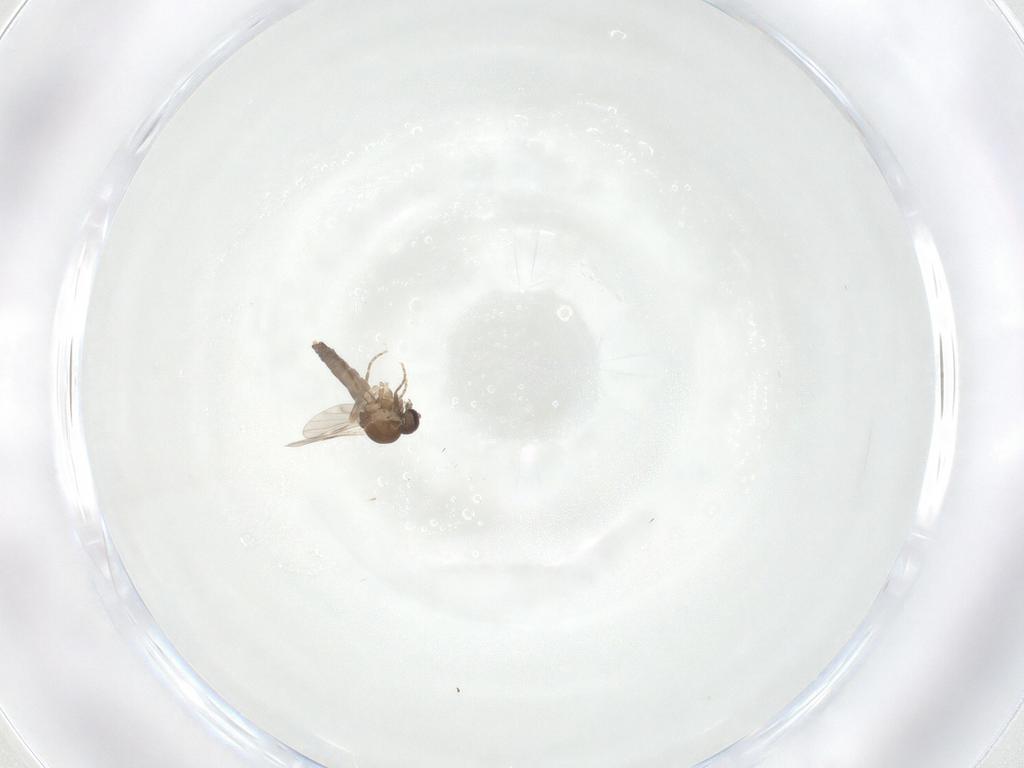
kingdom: Animalia
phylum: Arthropoda
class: Insecta
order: Diptera
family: Ceratopogonidae
